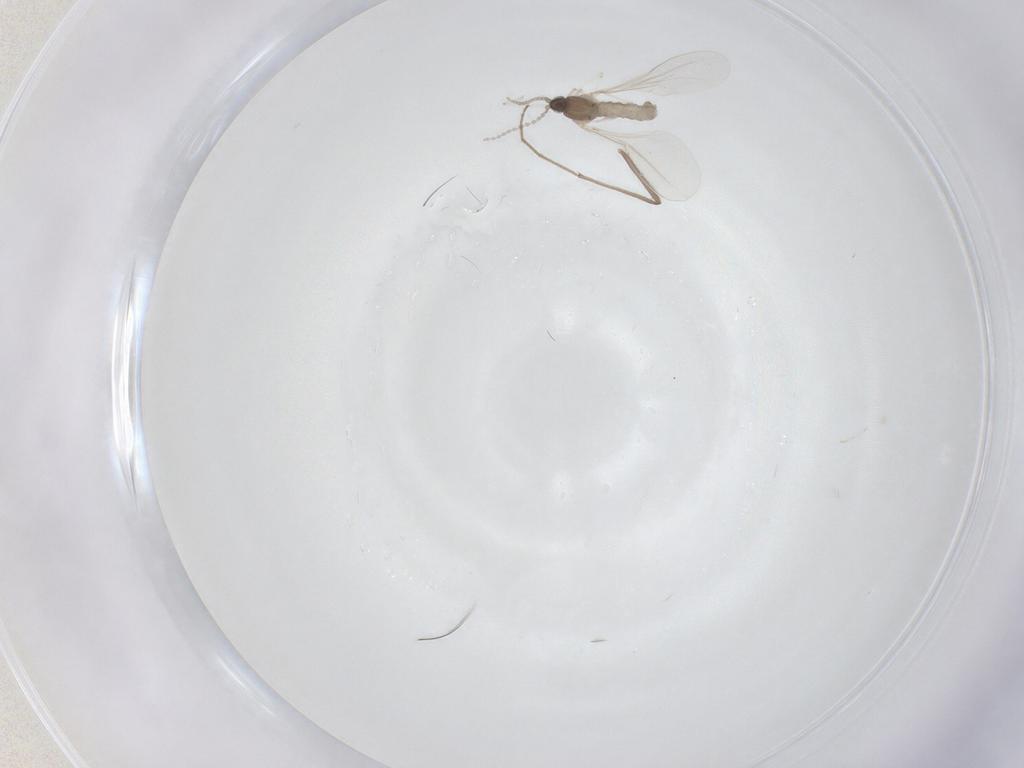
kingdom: Animalia
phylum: Arthropoda
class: Insecta
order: Diptera
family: Cecidomyiidae
